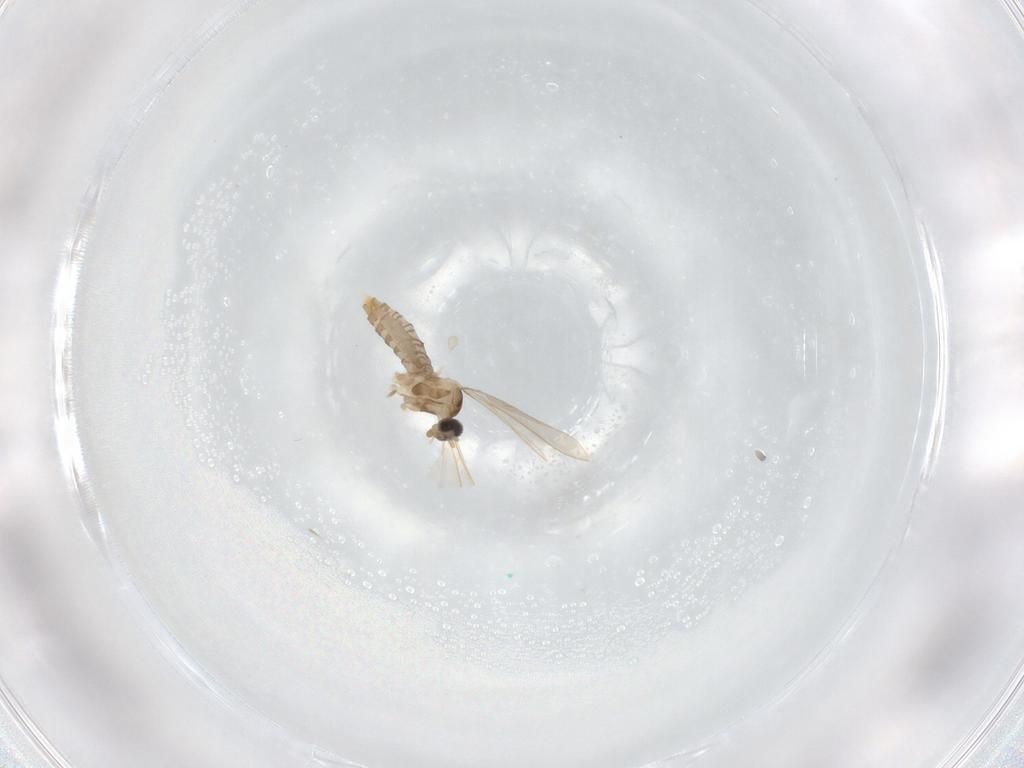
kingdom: Animalia
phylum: Arthropoda
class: Insecta
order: Diptera
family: Cecidomyiidae
